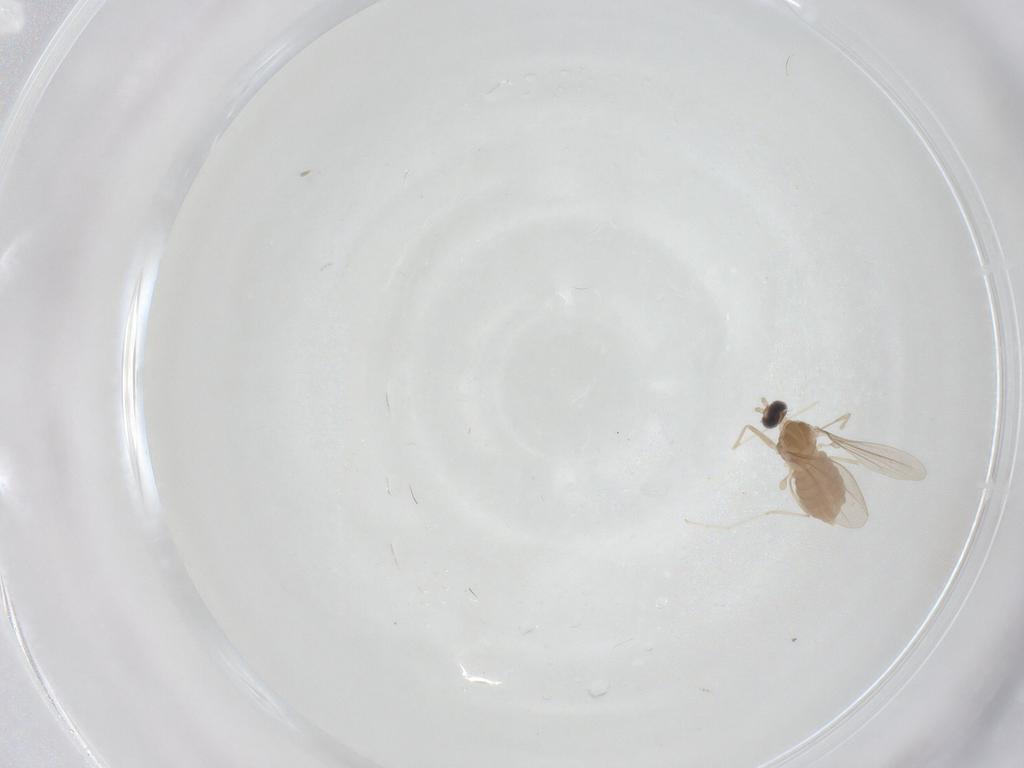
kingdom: Animalia
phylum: Arthropoda
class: Insecta
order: Diptera
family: Cecidomyiidae
